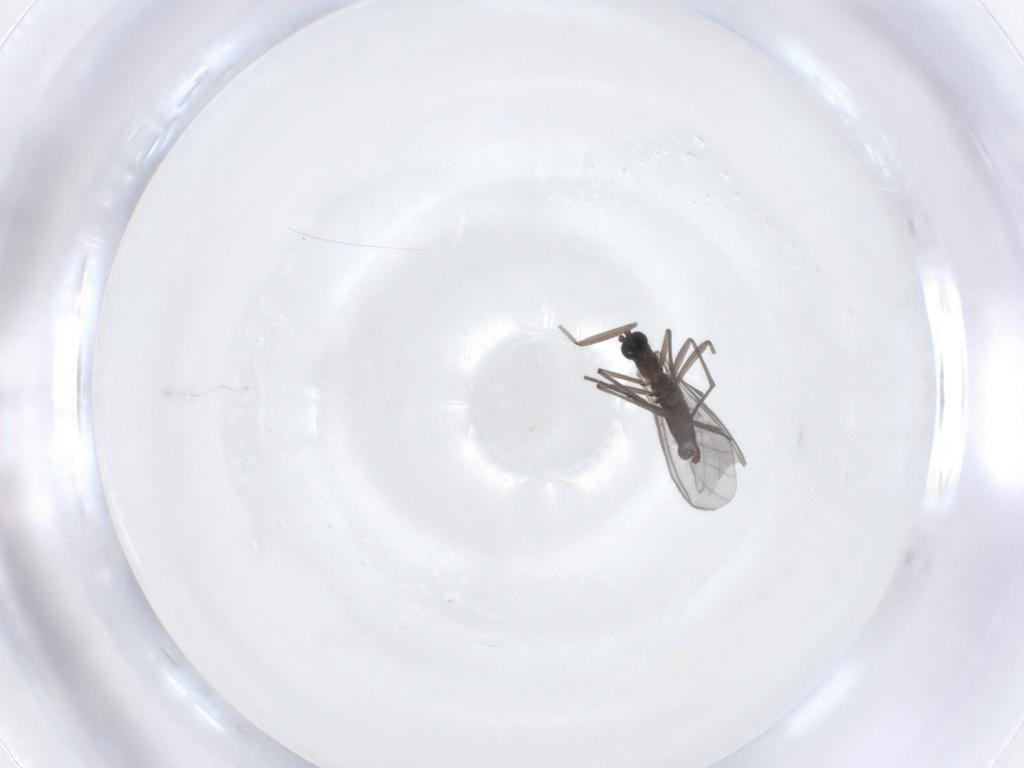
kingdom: Animalia
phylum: Arthropoda
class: Insecta
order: Diptera
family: Sciaridae
